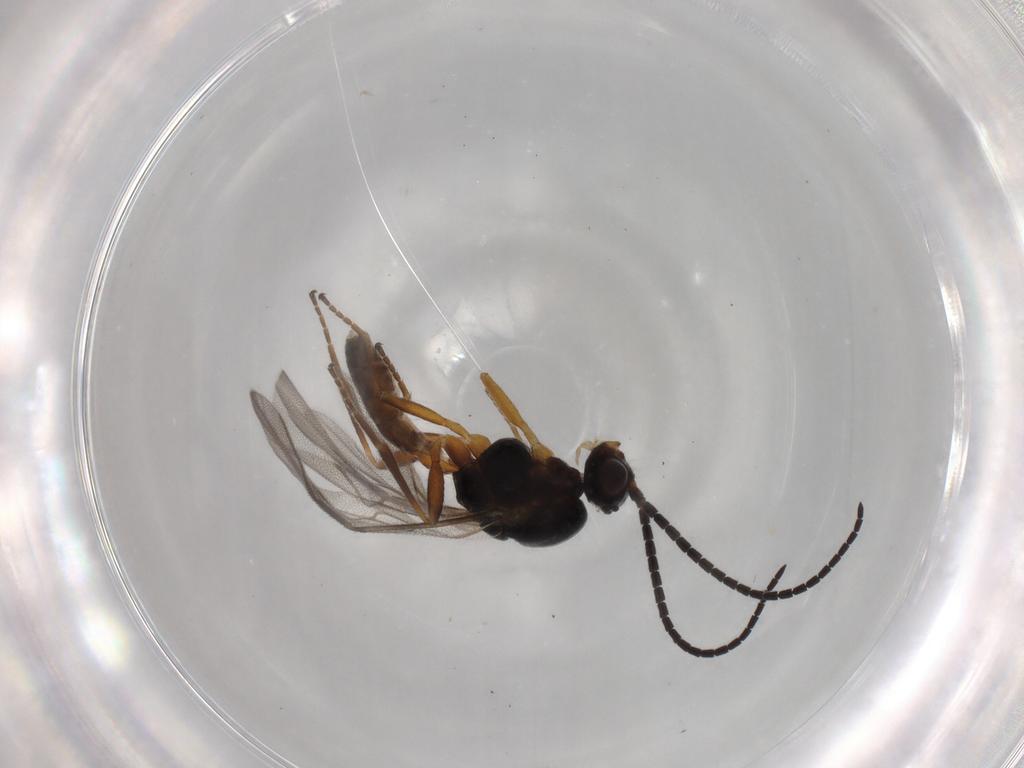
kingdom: Animalia
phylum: Arthropoda
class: Insecta
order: Hymenoptera
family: Braconidae
